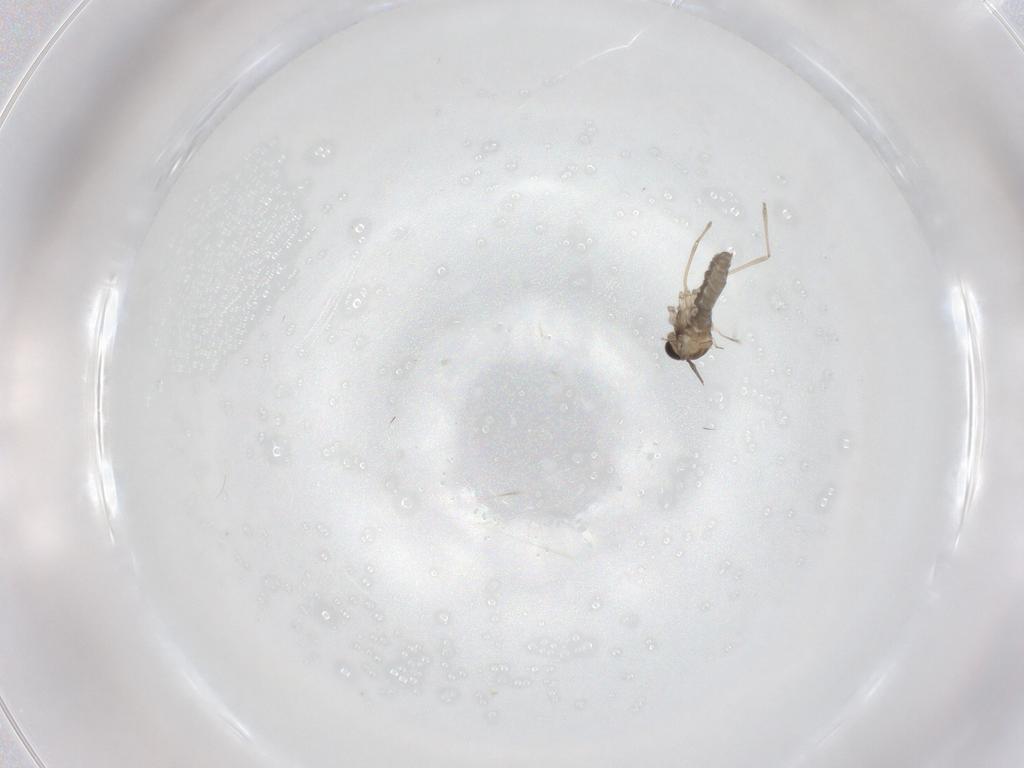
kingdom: Animalia
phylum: Arthropoda
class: Insecta
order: Diptera
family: Cecidomyiidae
